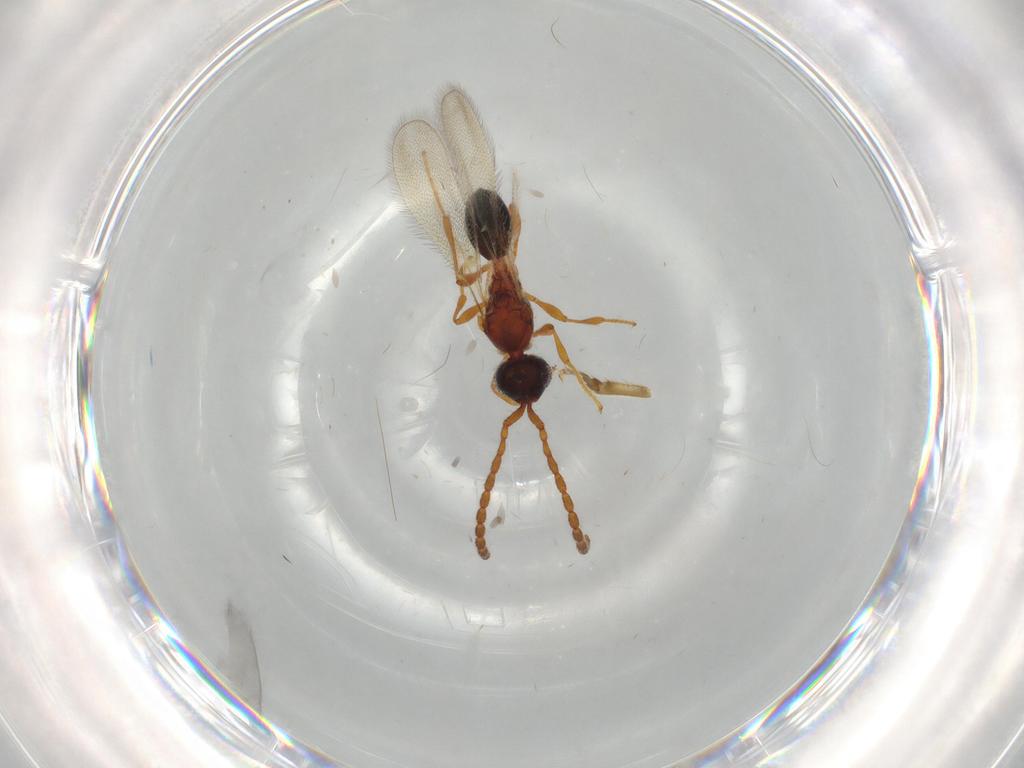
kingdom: Animalia
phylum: Arthropoda
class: Insecta
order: Hymenoptera
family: Diapriidae
